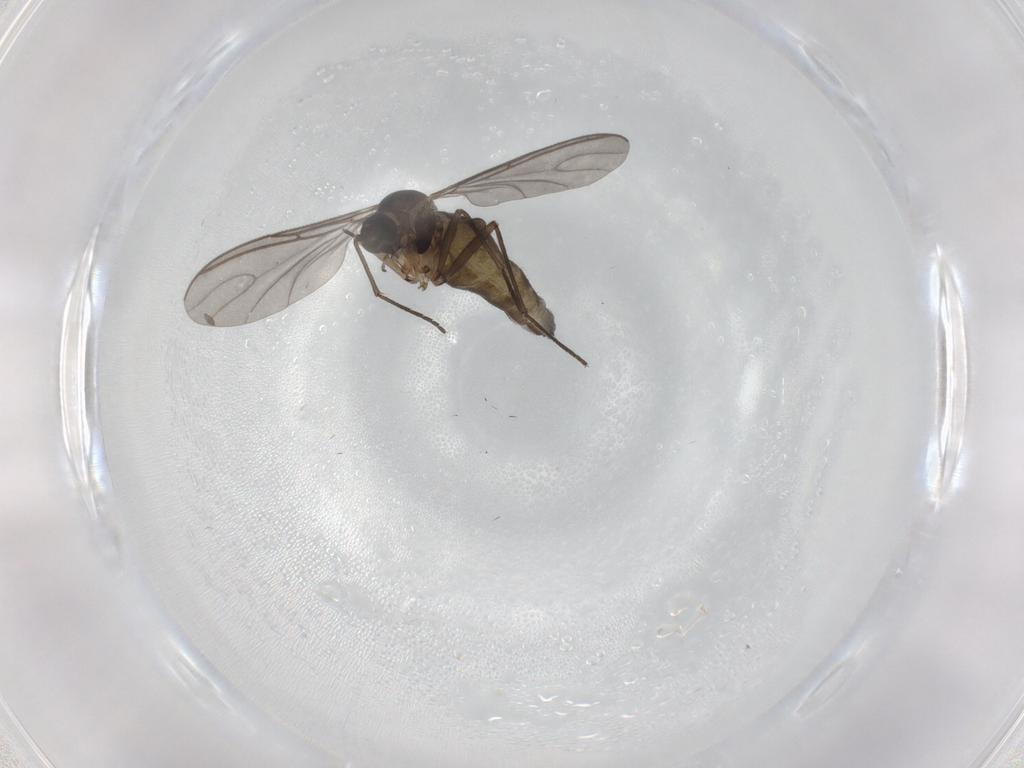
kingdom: Animalia
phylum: Arthropoda
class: Insecta
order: Diptera
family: Sciaridae
